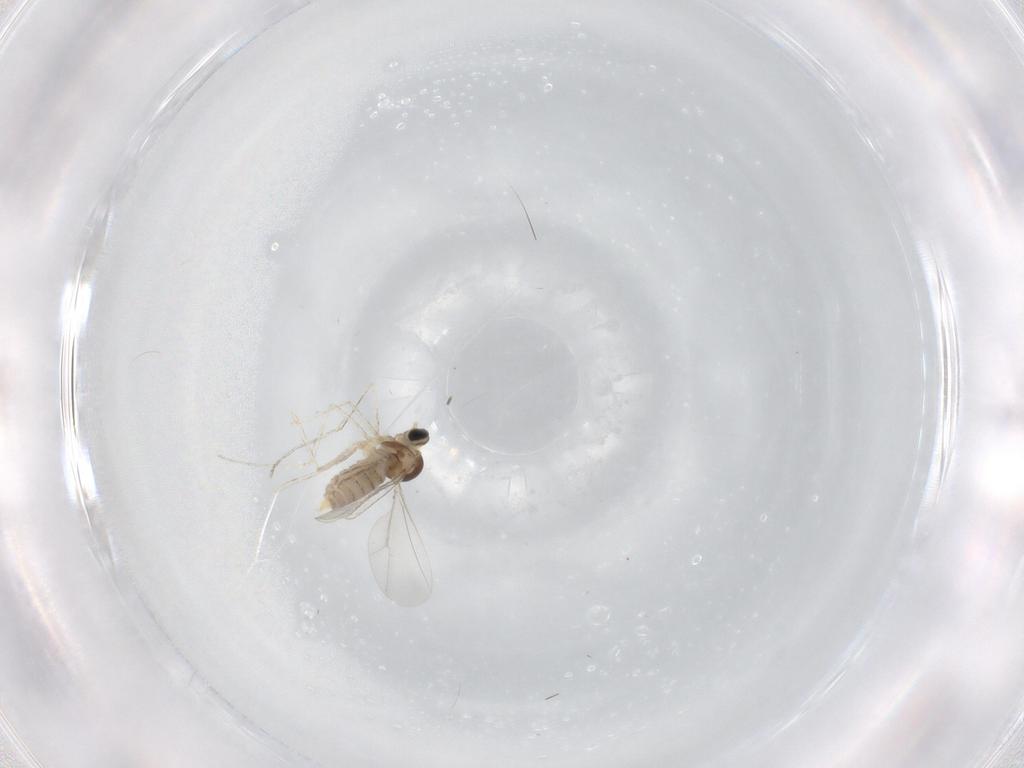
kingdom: Animalia
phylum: Arthropoda
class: Insecta
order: Diptera
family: Cecidomyiidae
